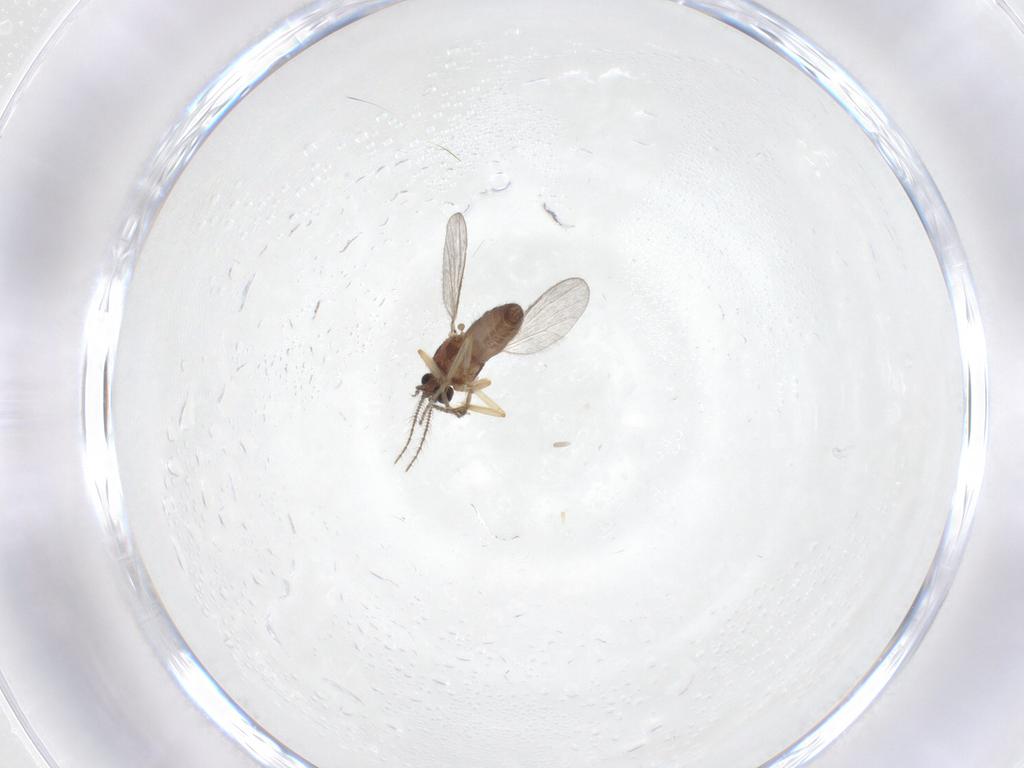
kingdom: Animalia
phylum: Arthropoda
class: Insecta
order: Diptera
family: Ceratopogonidae
